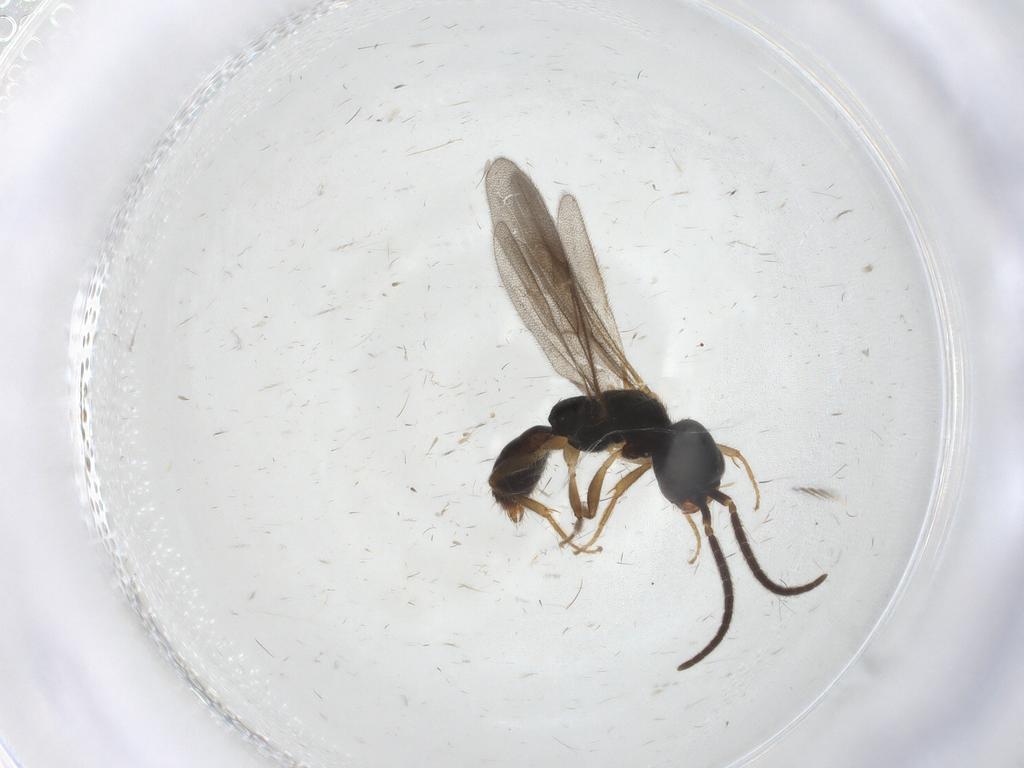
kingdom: Animalia
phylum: Arthropoda
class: Insecta
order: Hymenoptera
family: Bethylidae
